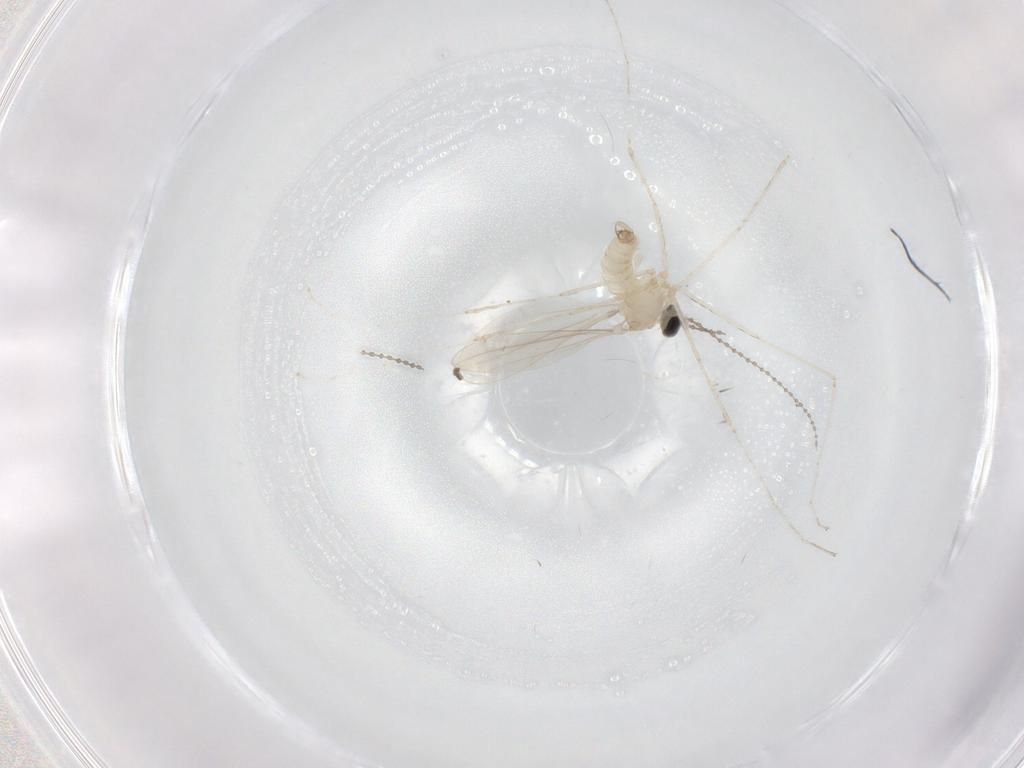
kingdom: Animalia
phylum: Arthropoda
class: Insecta
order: Diptera
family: Cecidomyiidae
